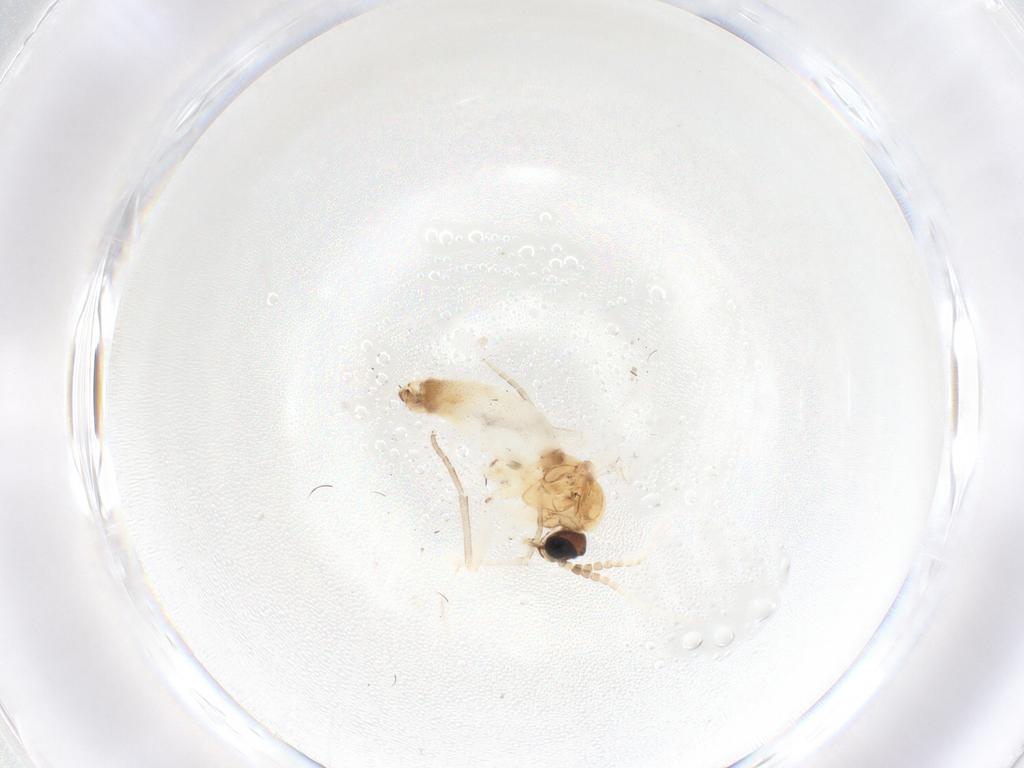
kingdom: Animalia
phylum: Arthropoda
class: Insecta
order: Diptera
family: Cecidomyiidae
